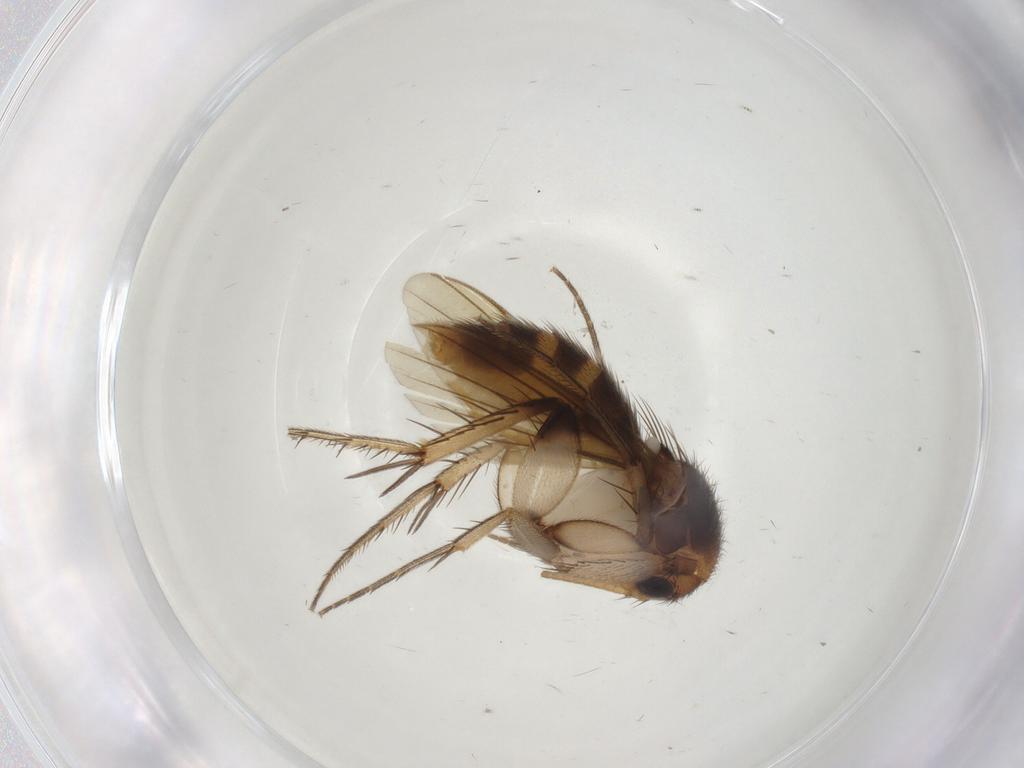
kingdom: Animalia
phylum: Arthropoda
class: Insecta
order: Diptera
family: Mycetophilidae
